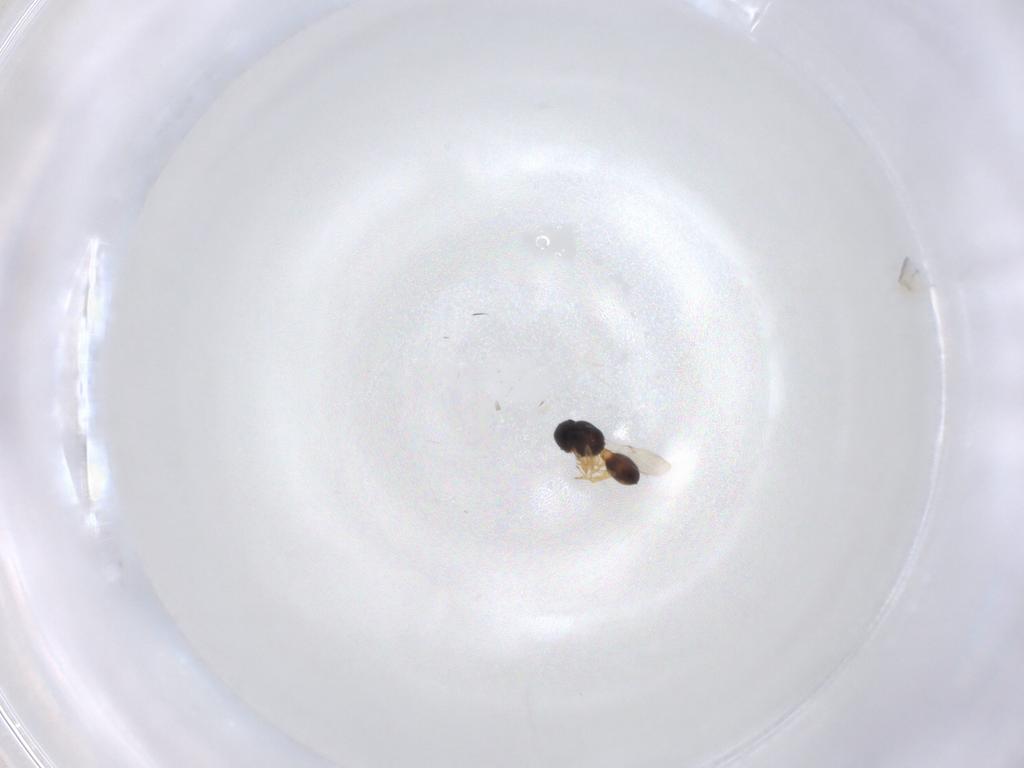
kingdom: Animalia
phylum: Arthropoda
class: Insecta
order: Hymenoptera
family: Scelionidae
